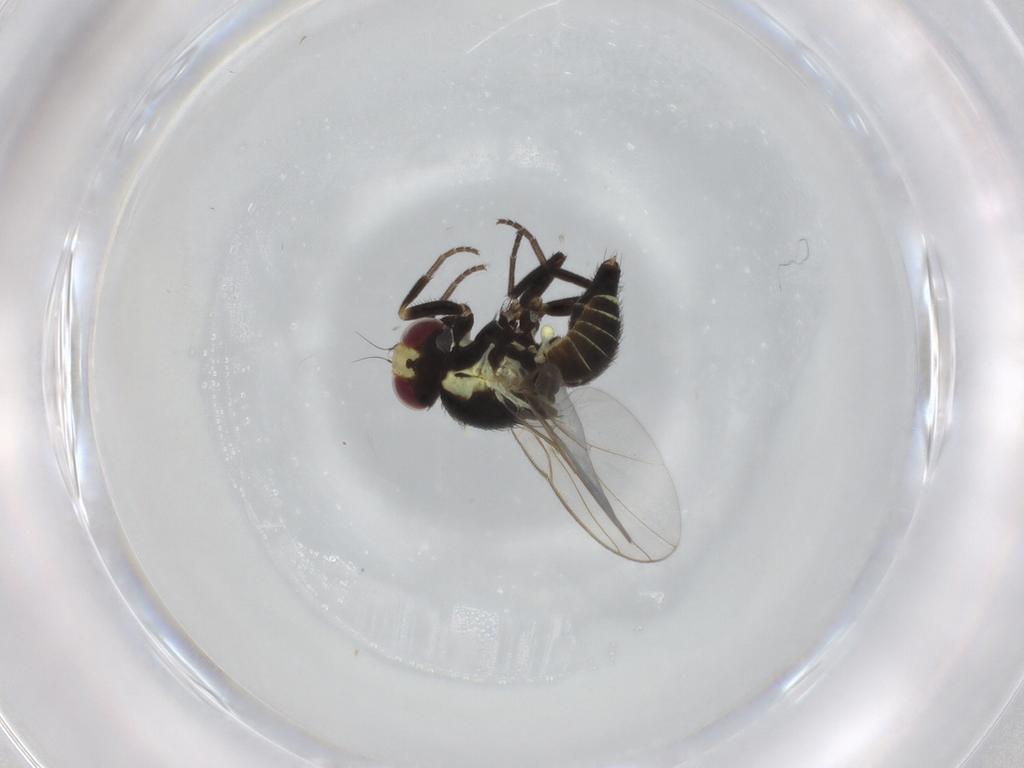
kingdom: Animalia
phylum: Arthropoda
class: Insecta
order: Diptera
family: Agromyzidae
